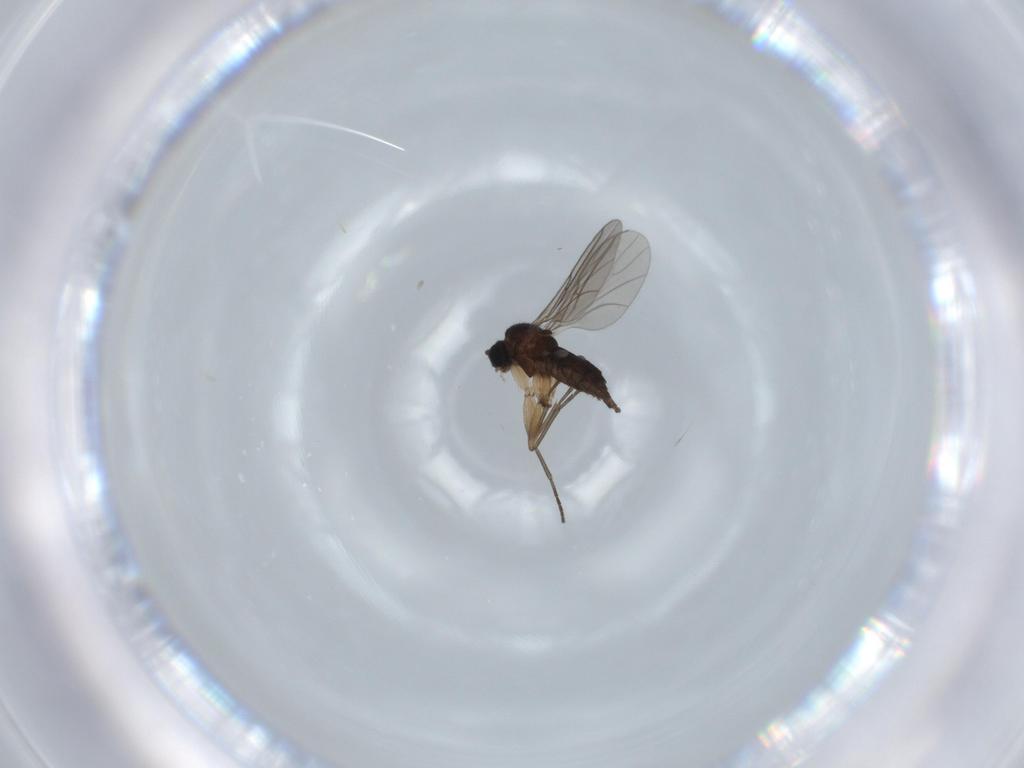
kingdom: Animalia
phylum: Arthropoda
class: Insecta
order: Diptera
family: Sciaridae
